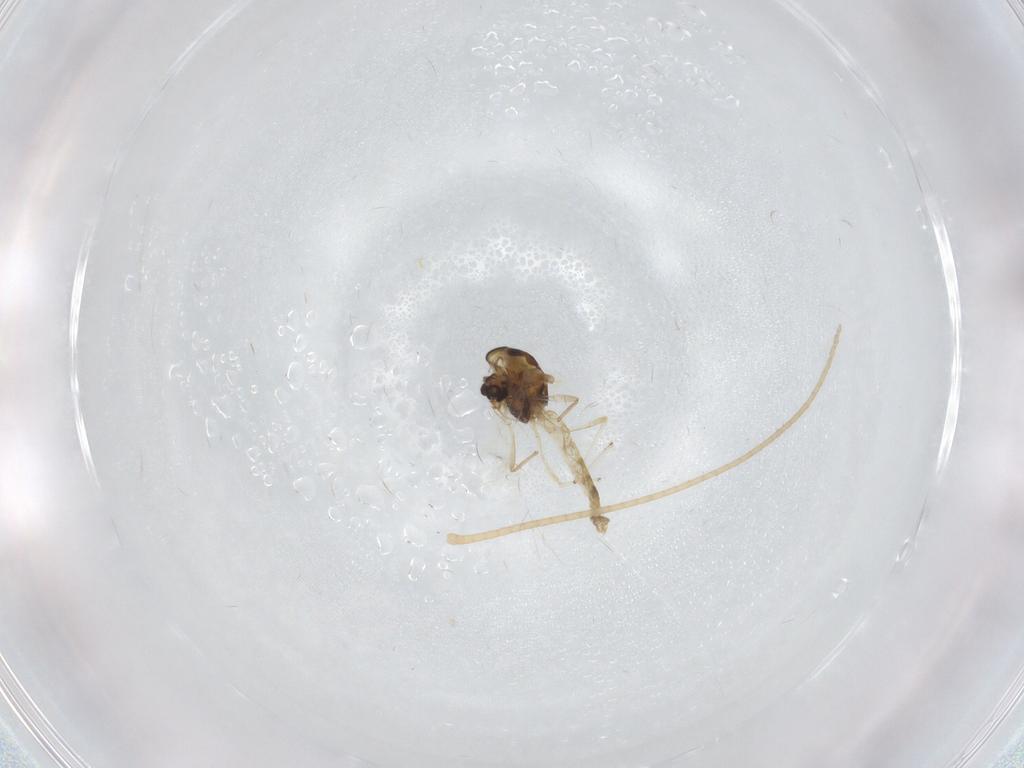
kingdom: Animalia
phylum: Arthropoda
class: Insecta
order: Diptera
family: Chironomidae
